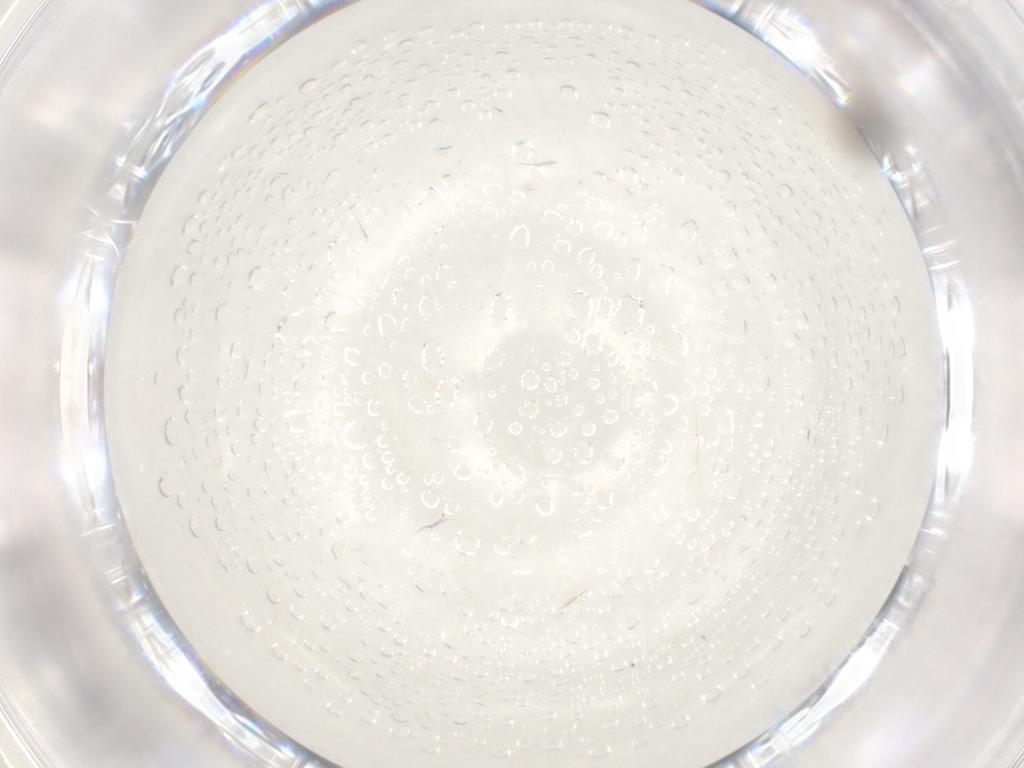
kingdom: Animalia
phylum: Arthropoda
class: Insecta
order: Hymenoptera
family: Platygastridae
